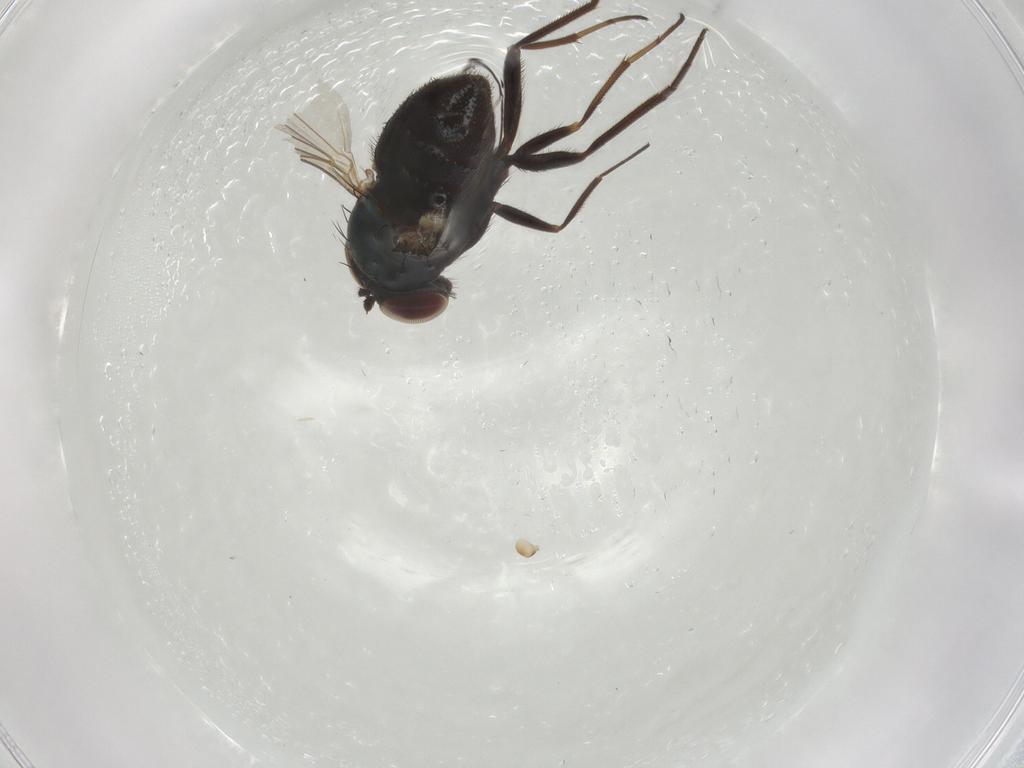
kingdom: Animalia
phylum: Arthropoda
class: Insecta
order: Diptera
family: Dolichopodidae
